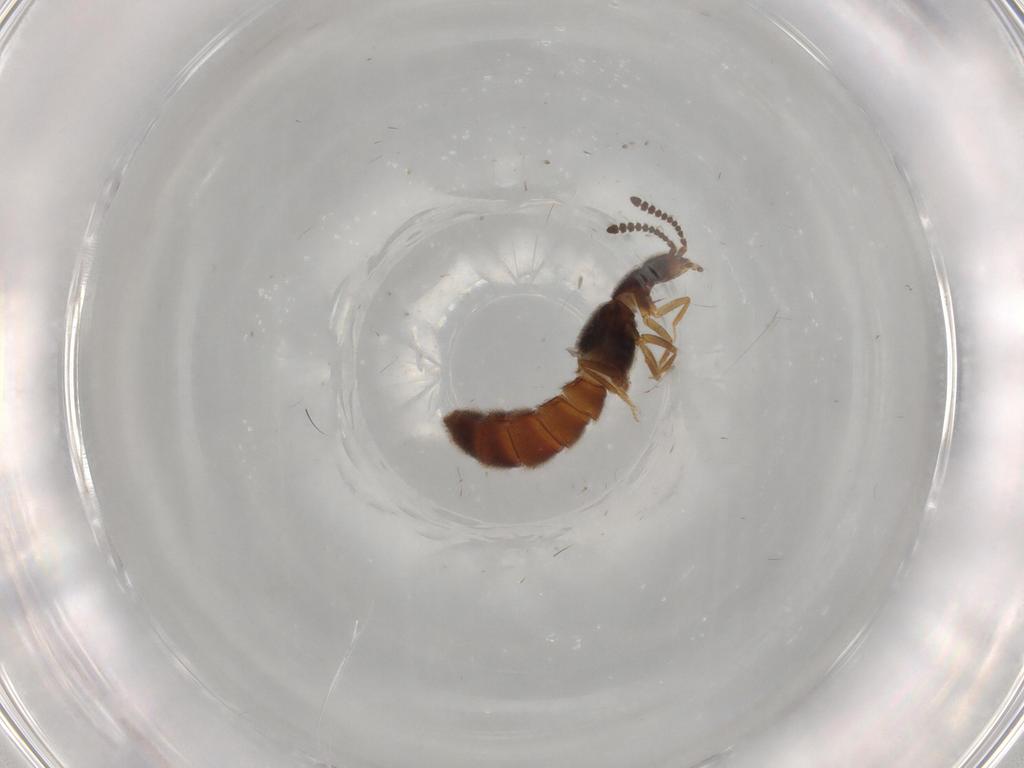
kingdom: Animalia
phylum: Arthropoda
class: Insecta
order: Coleoptera
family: Staphylinidae
